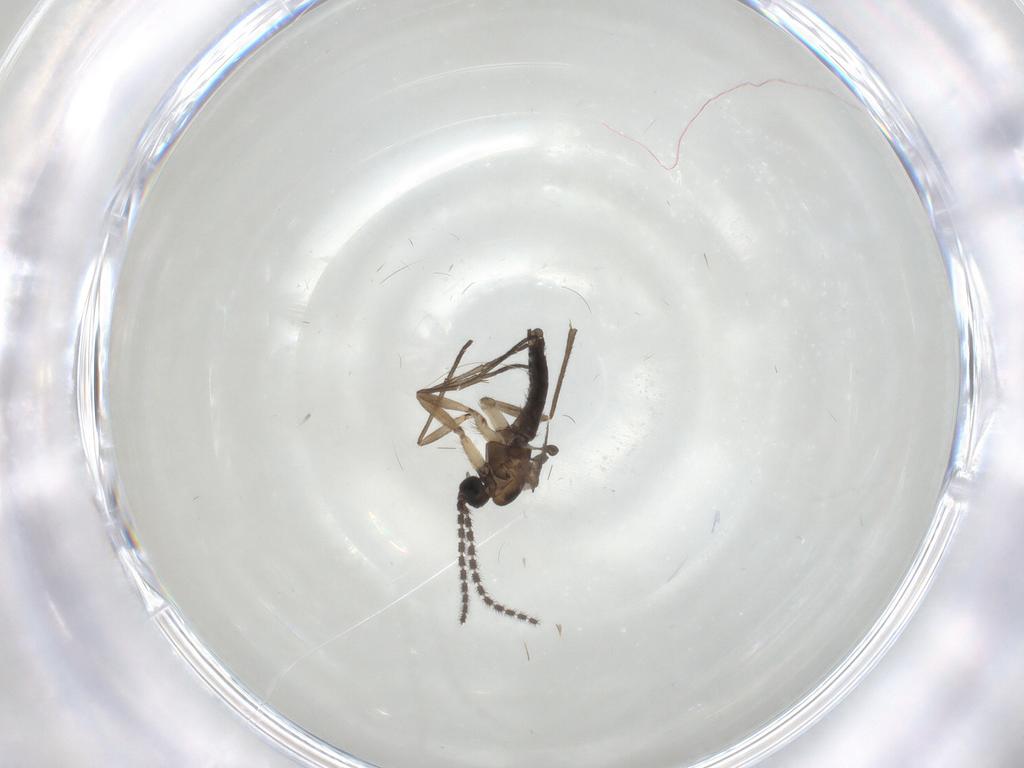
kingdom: Animalia
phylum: Arthropoda
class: Insecta
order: Diptera
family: Sciaridae
